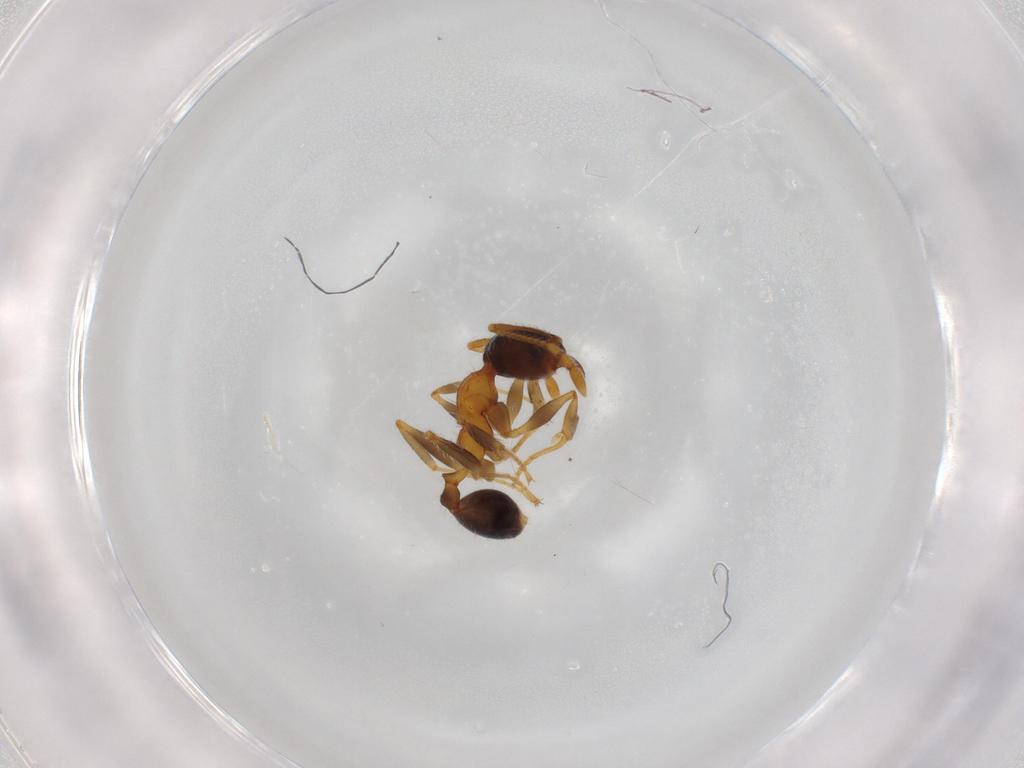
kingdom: Animalia
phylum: Arthropoda
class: Insecta
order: Hymenoptera
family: Formicidae
